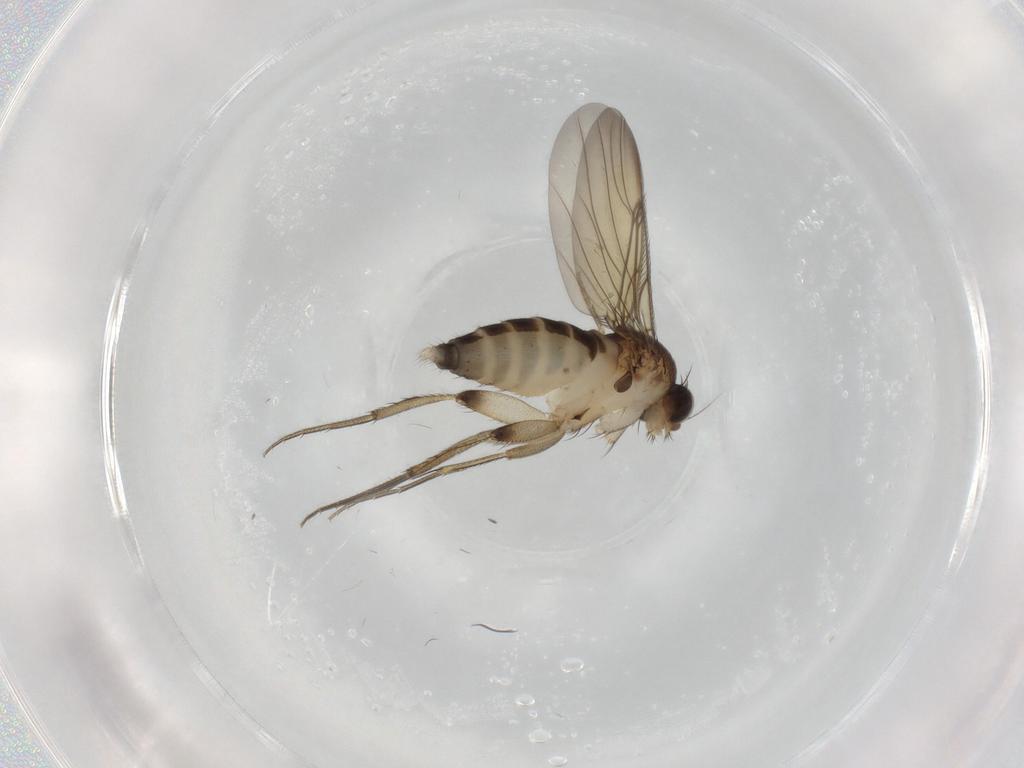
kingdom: Animalia
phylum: Arthropoda
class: Insecta
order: Diptera
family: Phoridae
